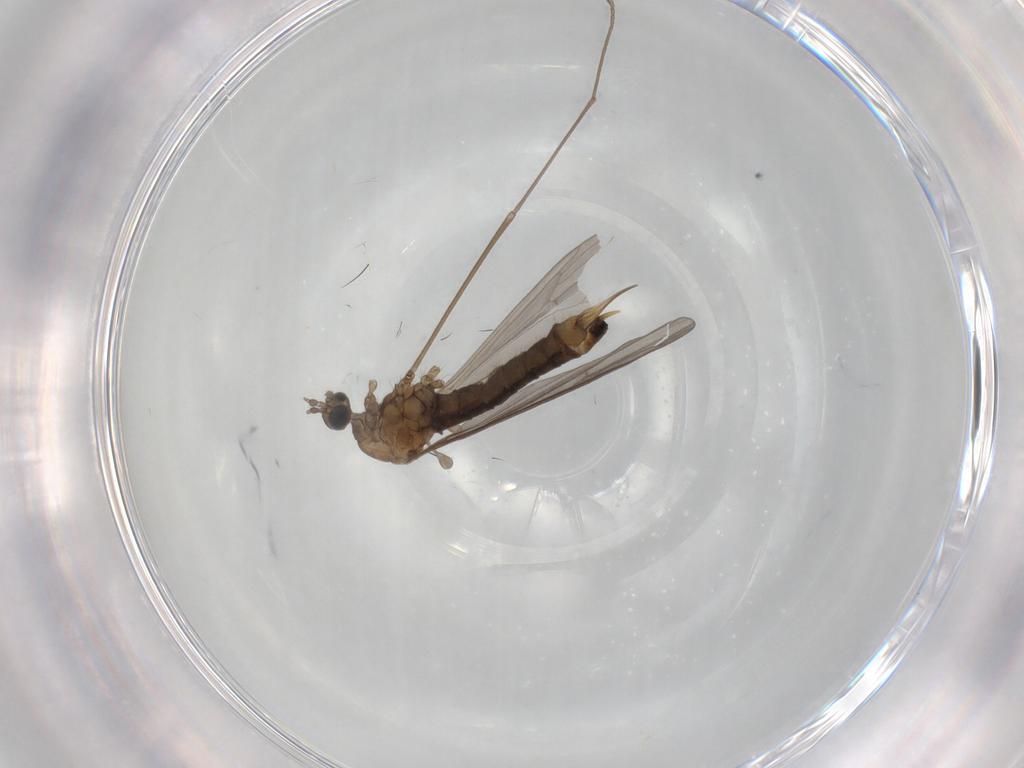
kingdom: Animalia
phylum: Arthropoda
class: Insecta
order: Diptera
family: Limoniidae
